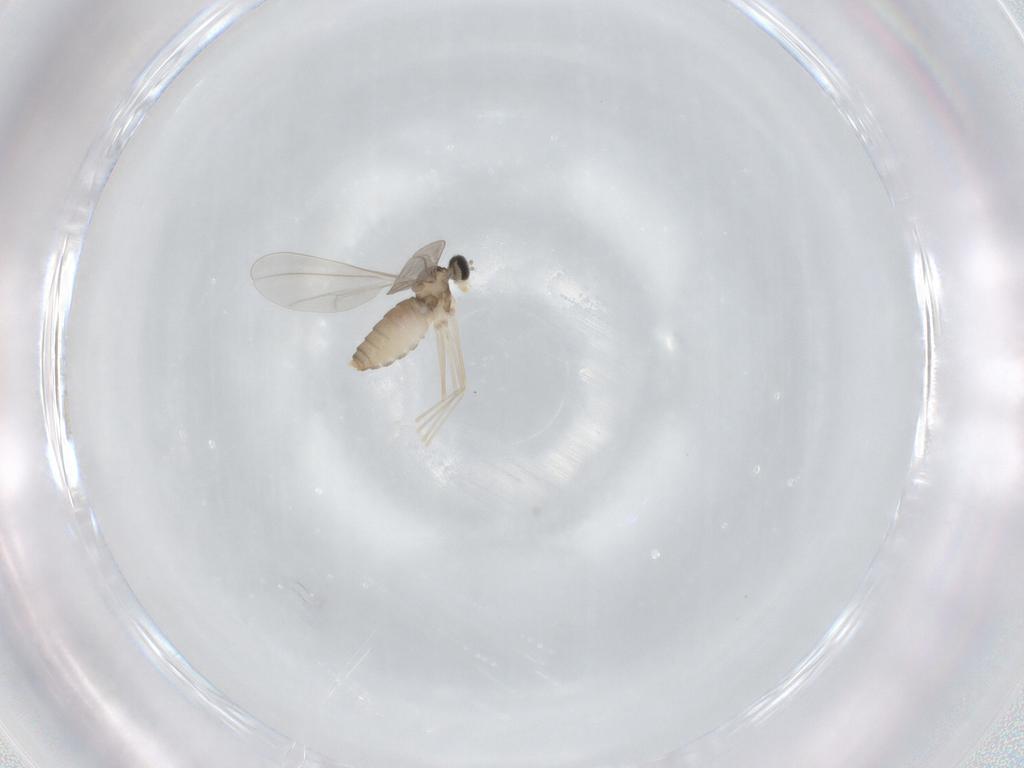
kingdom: Animalia
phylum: Arthropoda
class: Insecta
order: Diptera
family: Cecidomyiidae
